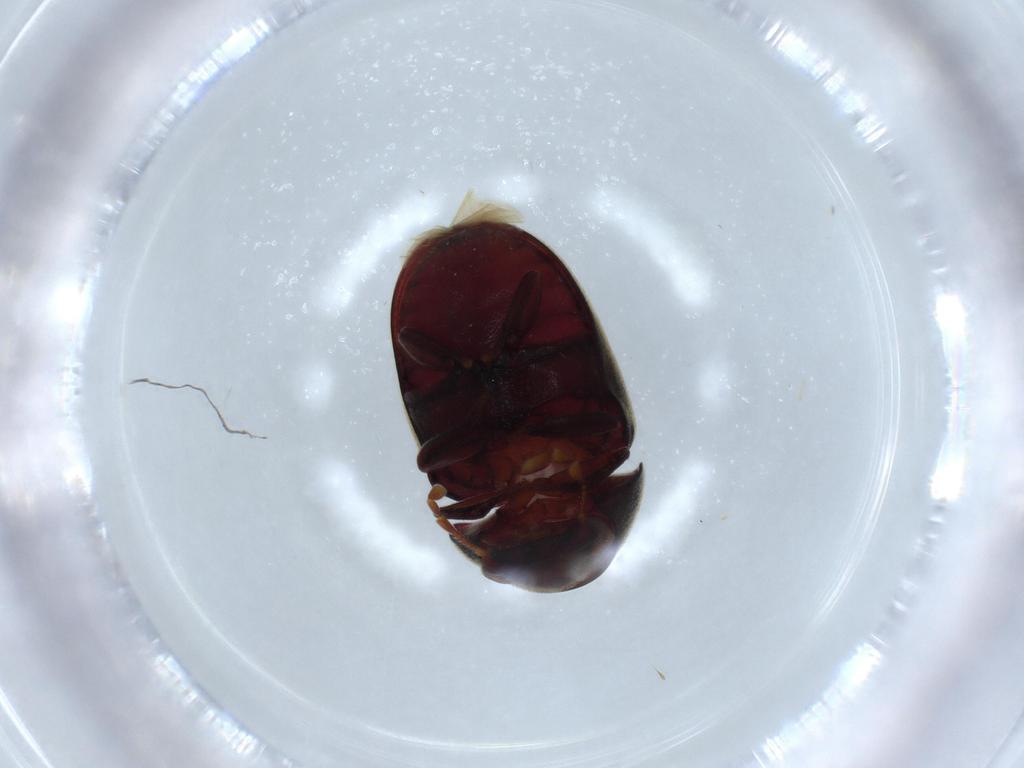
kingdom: Animalia
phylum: Arthropoda
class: Insecta
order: Coleoptera
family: Ptinidae
